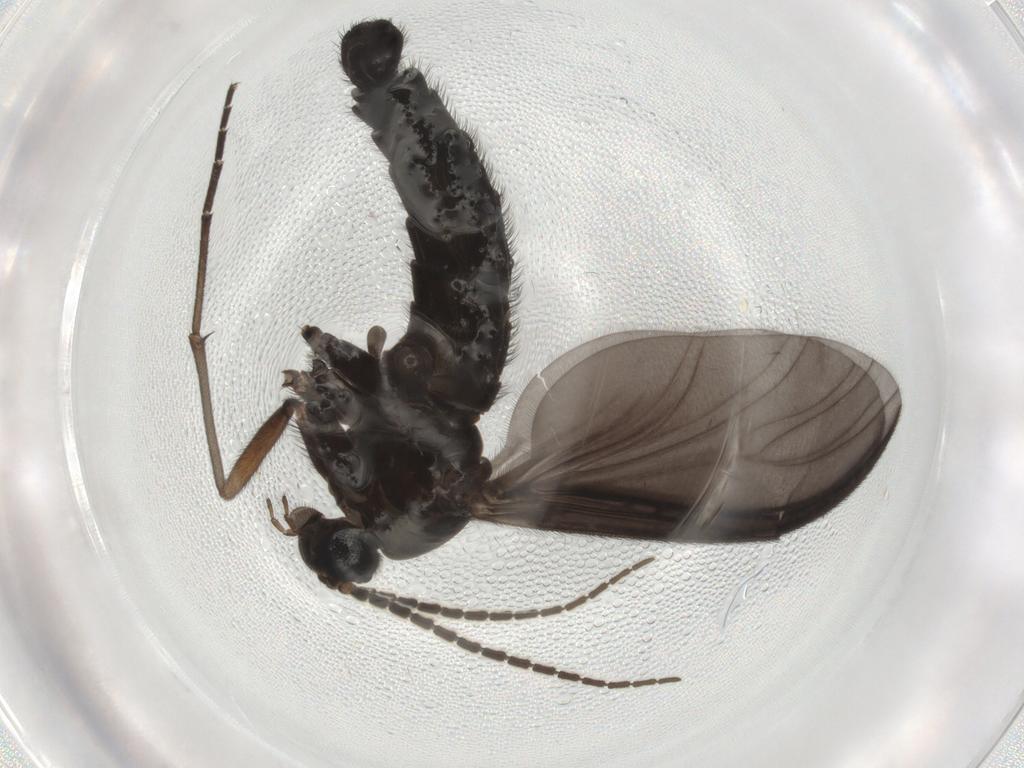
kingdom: Animalia
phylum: Arthropoda
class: Insecta
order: Diptera
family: Sciaridae
